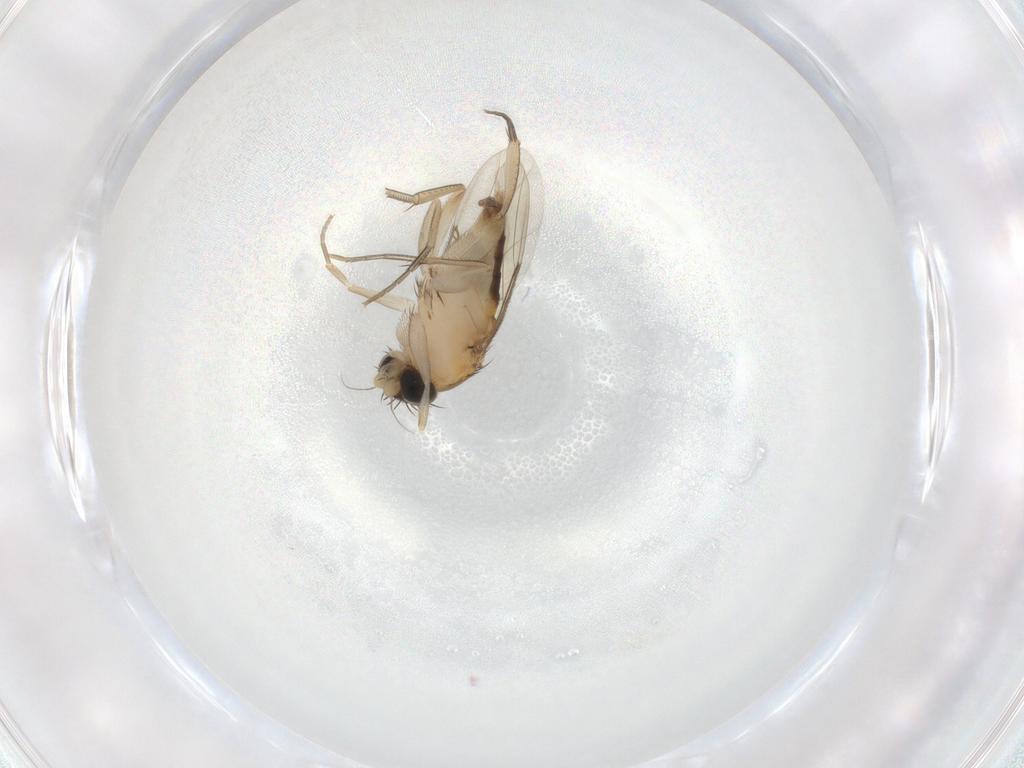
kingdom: Animalia
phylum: Arthropoda
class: Insecta
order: Diptera
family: Phoridae
